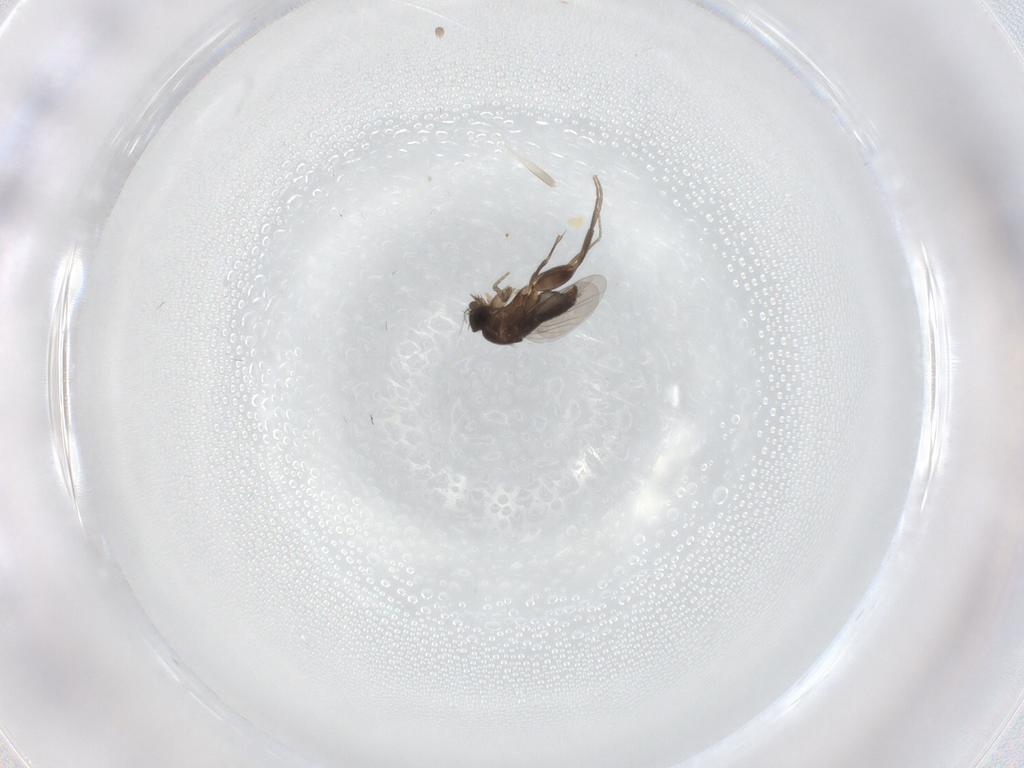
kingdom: Animalia
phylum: Arthropoda
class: Insecta
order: Diptera
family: Phoridae
